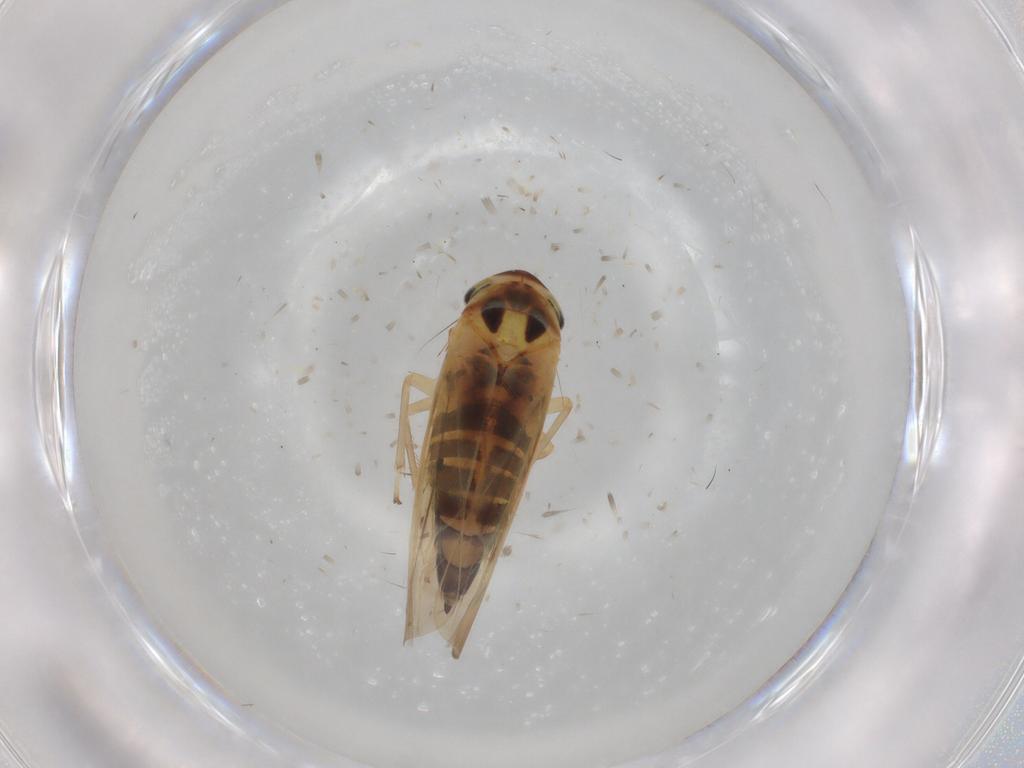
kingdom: Animalia
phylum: Arthropoda
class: Insecta
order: Hemiptera
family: Cicadellidae
